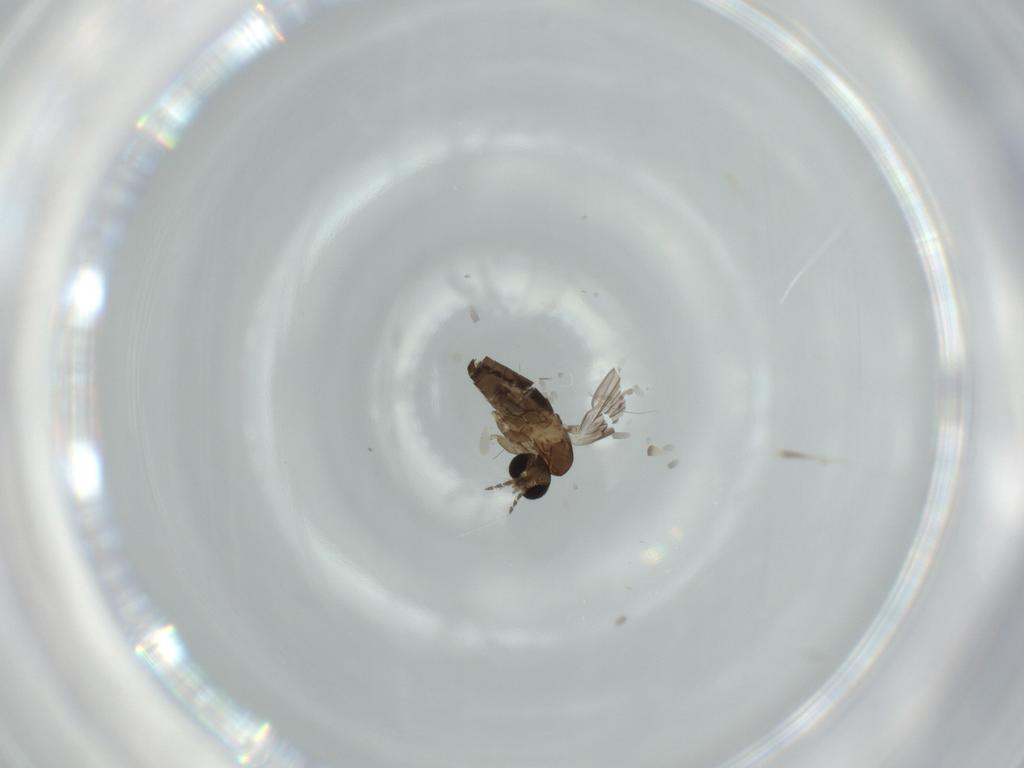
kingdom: Animalia
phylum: Arthropoda
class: Insecta
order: Diptera
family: Psychodidae
